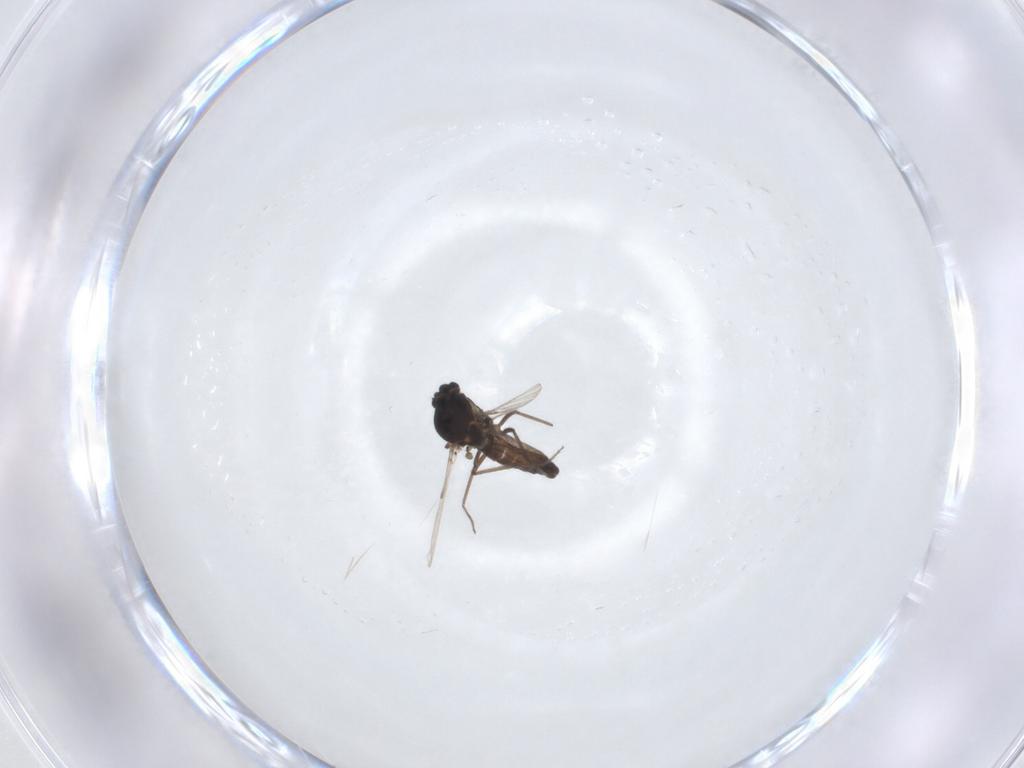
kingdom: Animalia
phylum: Arthropoda
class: Insecta
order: Diptera
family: Ceratopogonidae
